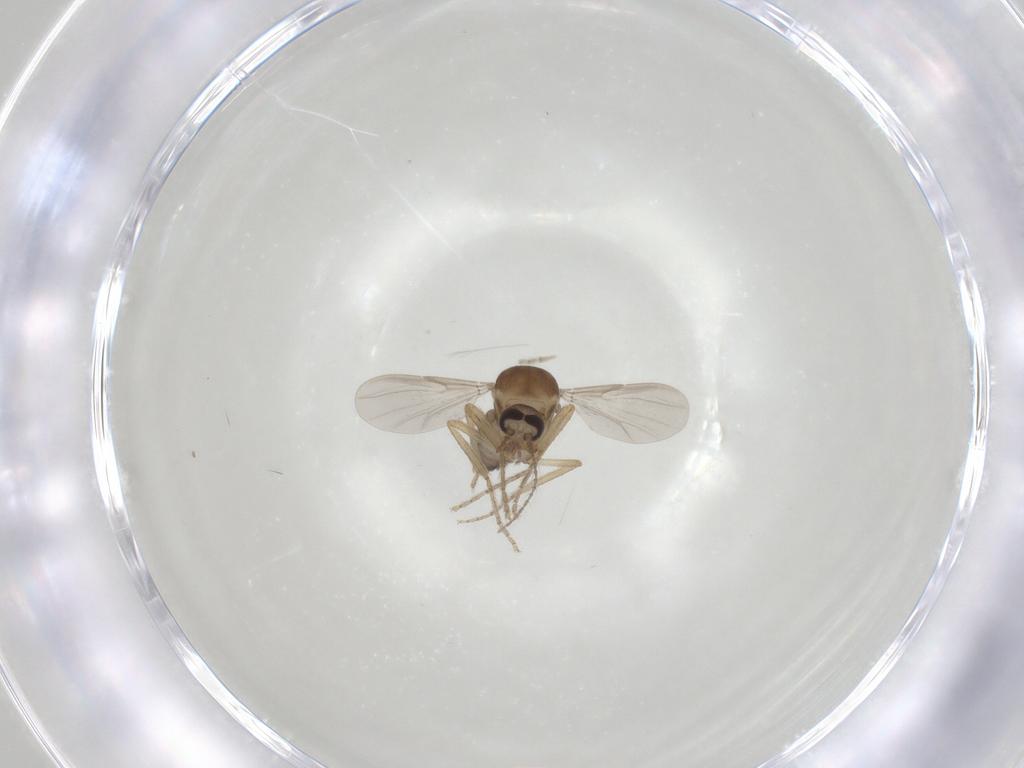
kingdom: Animalia
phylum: Arthropoda
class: Insecta
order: Diptera
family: Ceratopogonidae
